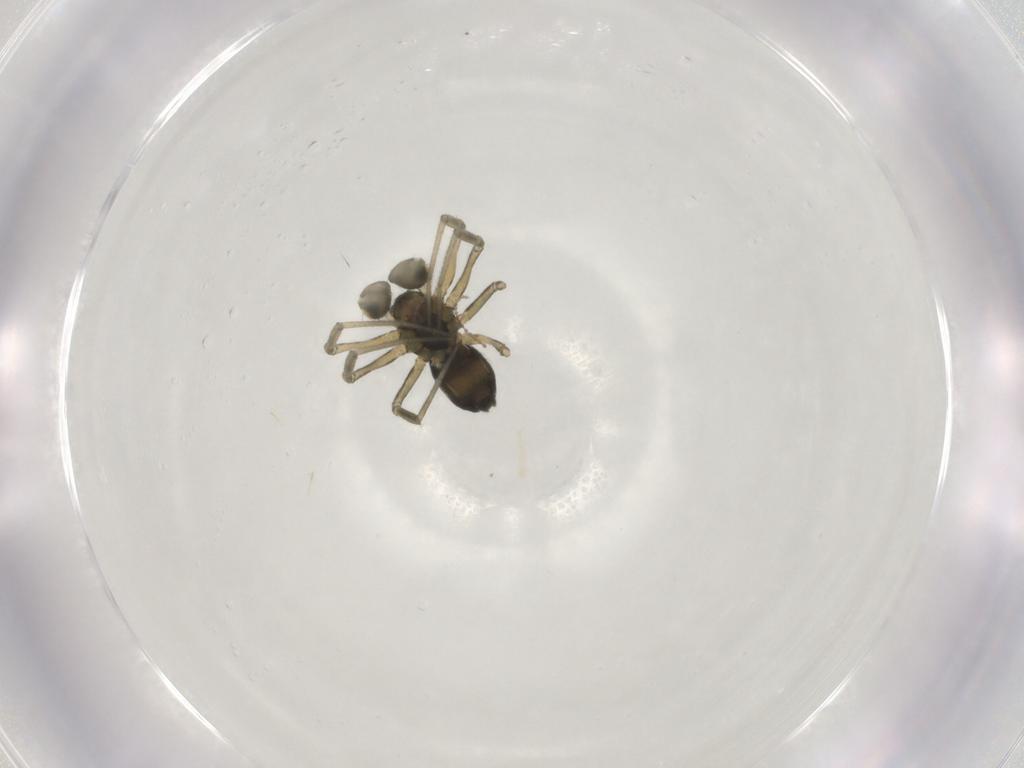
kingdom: Animalia
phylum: Arthropoda
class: Arachnida
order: Araneae
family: Linyphiidae
